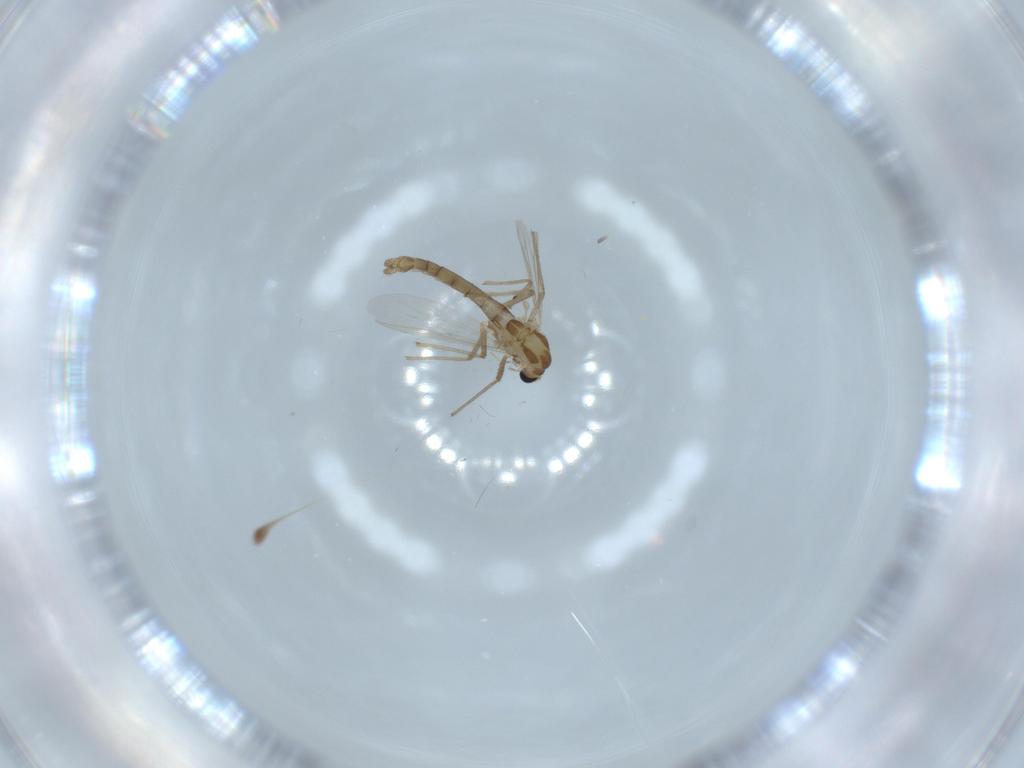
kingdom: Animalia
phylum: Arthropoda
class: Insecta
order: Diptera
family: Chironomidae
